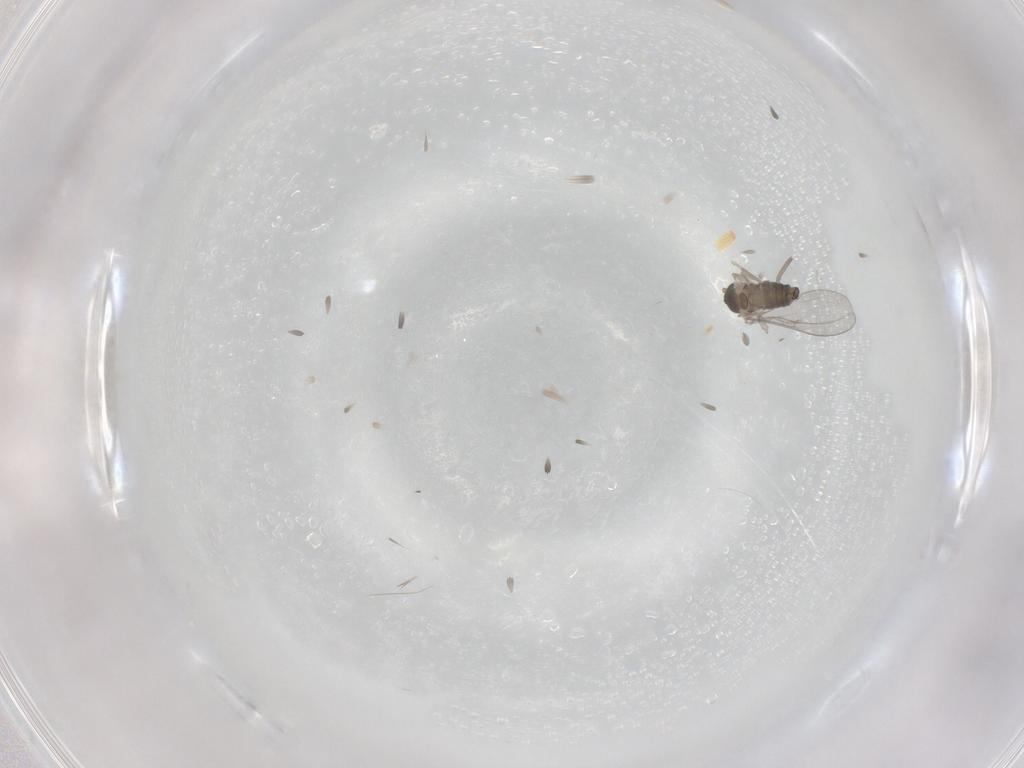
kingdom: Animalia
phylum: Arthropoda
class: Insecta
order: Diptera
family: Cecidomyiidae
